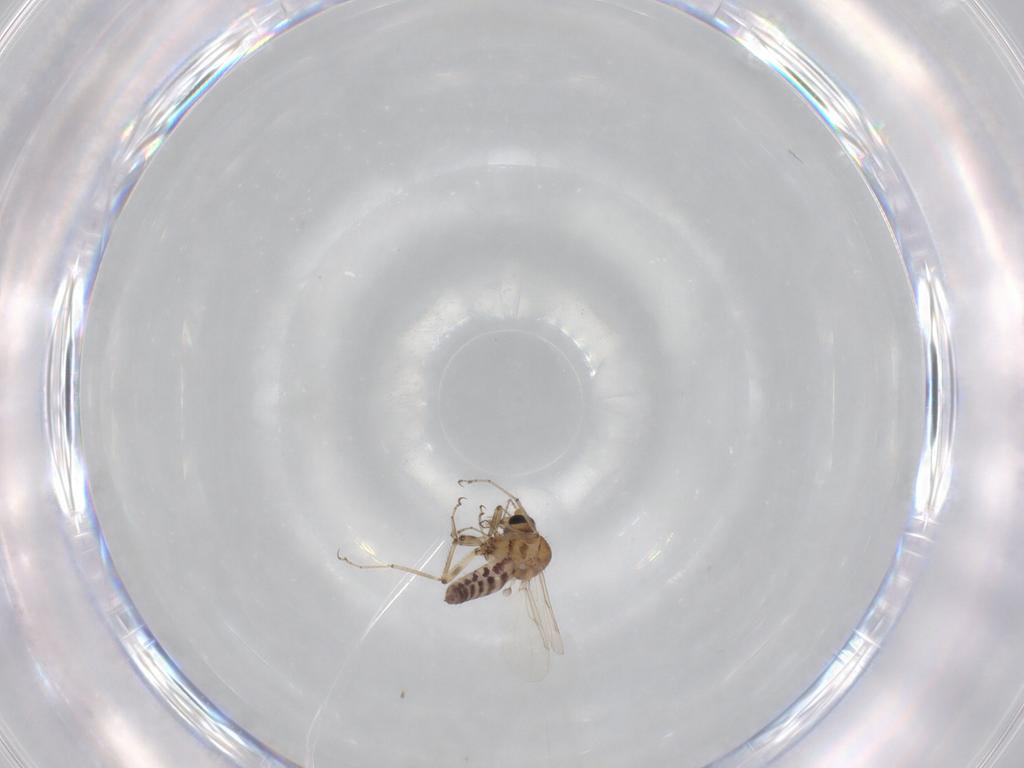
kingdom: Animalia
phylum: Arthropoda
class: Insecta
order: Diptera
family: Ceratopogonidae
